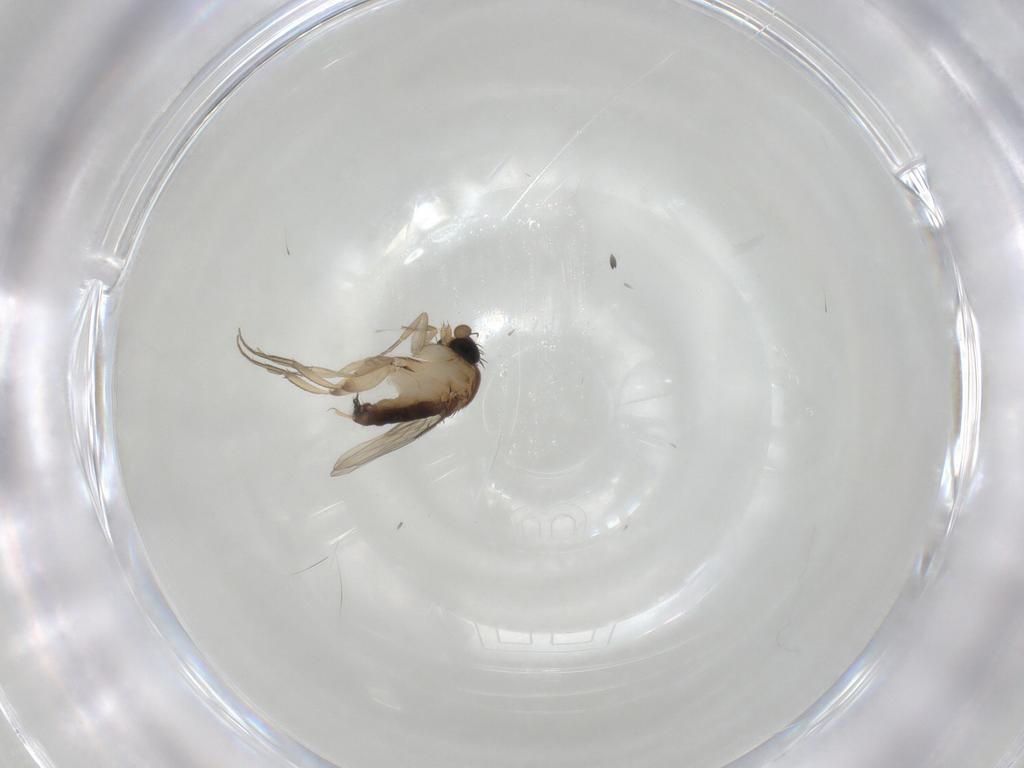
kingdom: Animalia
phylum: Arthropoda
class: Insecta
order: Diptera
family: Phoridae
